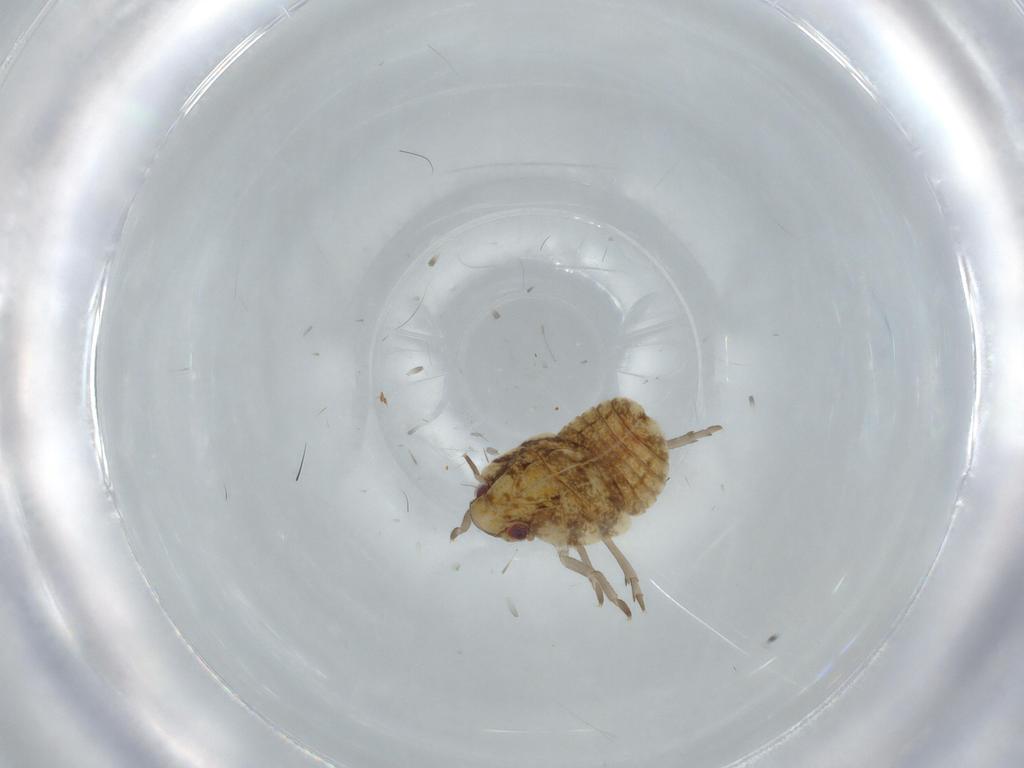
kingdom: Animalia
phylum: Arthropoda
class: Insecta
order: Hemiptera
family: Flatidae
